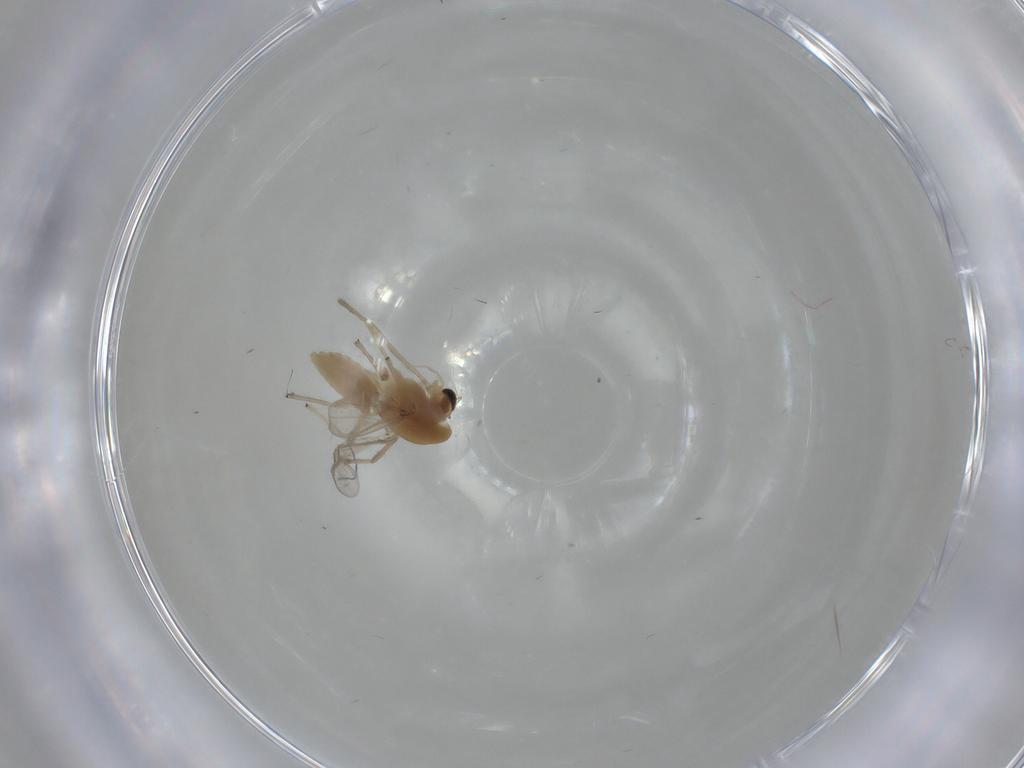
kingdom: Animalia
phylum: Arthropoda
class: Insecta
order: Diptera
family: Chironomidae
